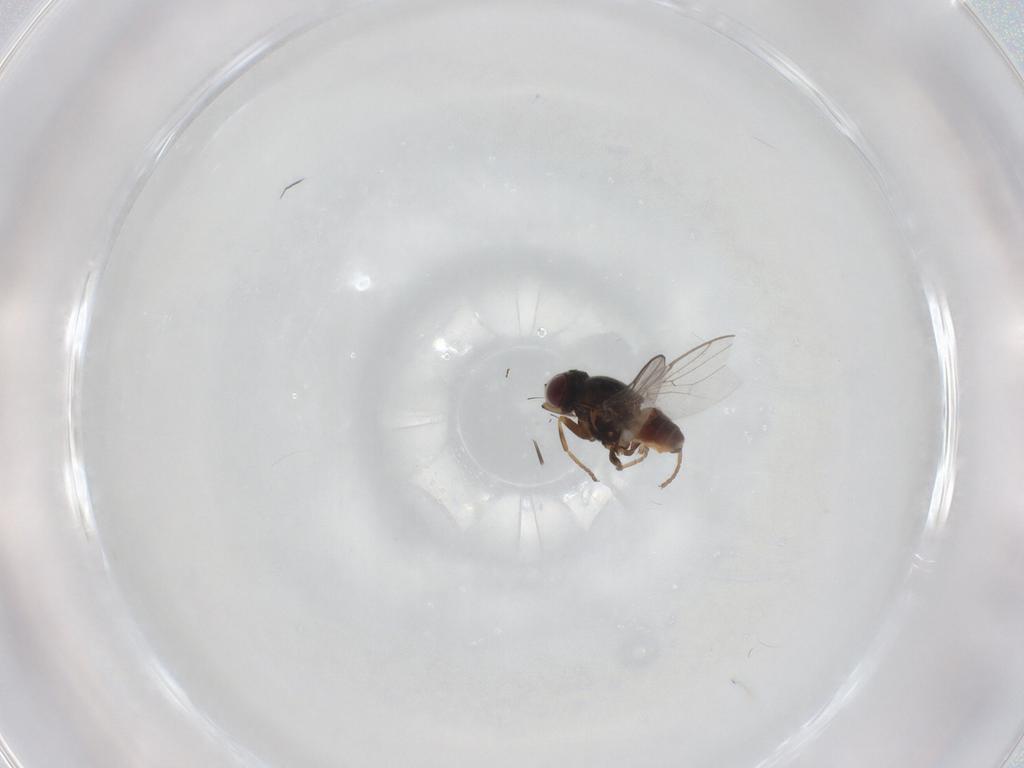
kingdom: Animalia
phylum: Arthropoda
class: Insecta
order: Diptera
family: Chloropidae
